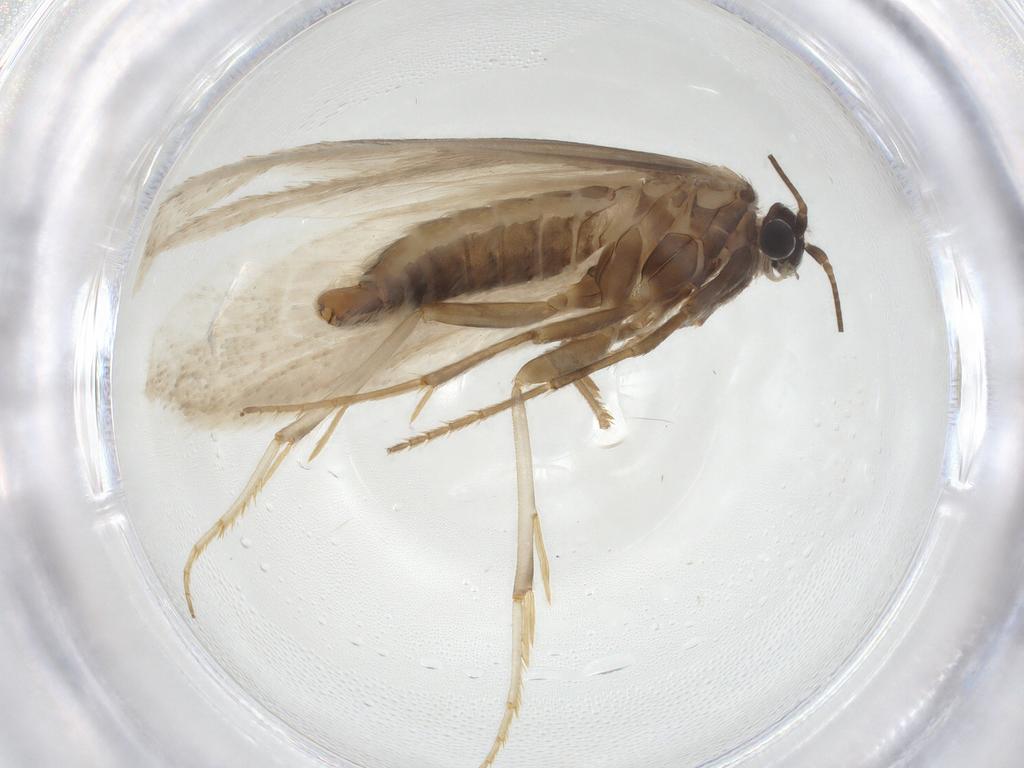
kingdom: Animalia
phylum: Arthropoda
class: Insecta
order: Lepidoptera
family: Tridentaformidae
